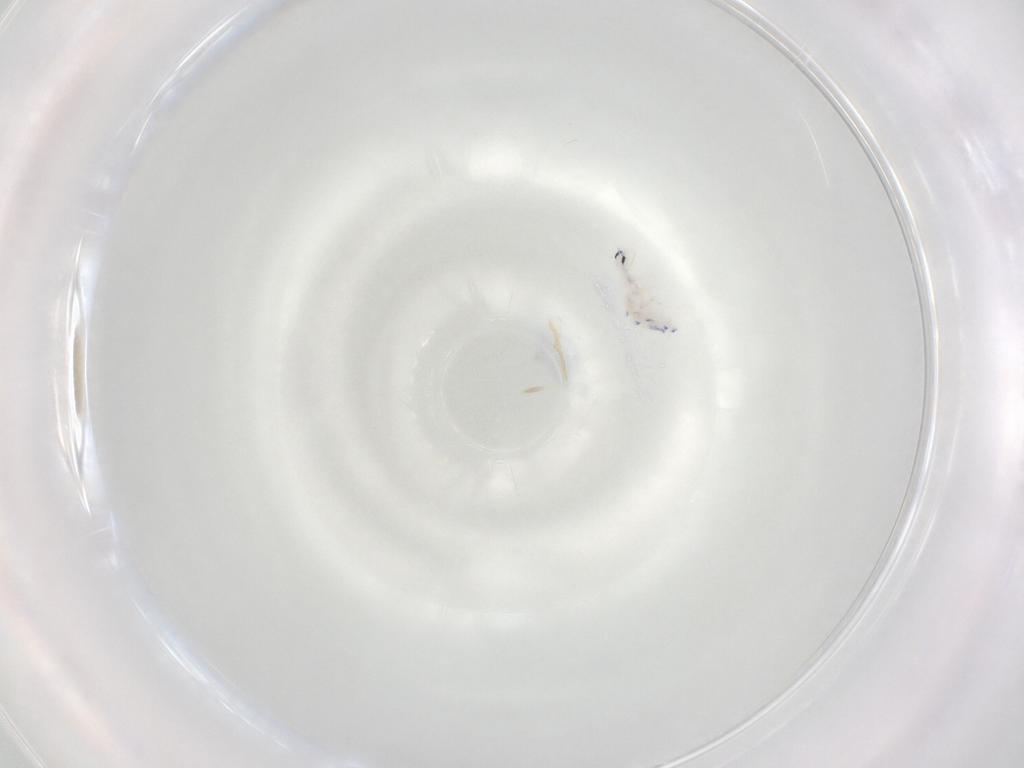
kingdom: Animalia
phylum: Arthropoda
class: Collembola
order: Entomobryomorpha
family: Entomobryidae
